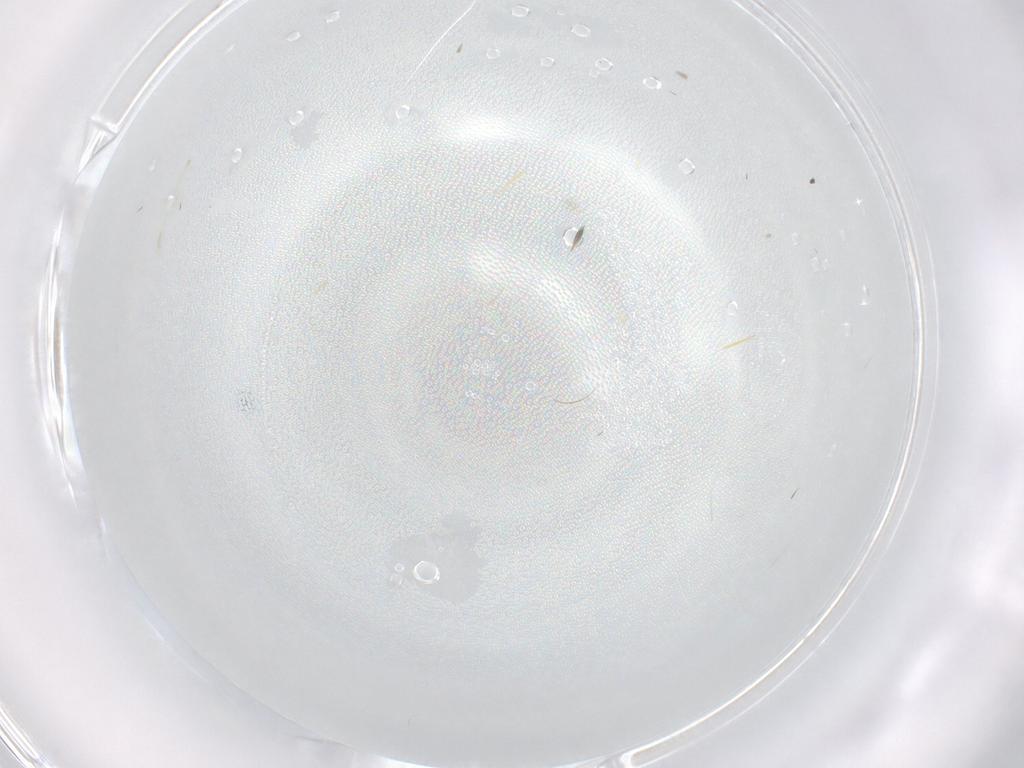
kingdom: Animalia
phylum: Arthropoda
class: Insecta
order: Diptera
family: Cecidomyiidae
